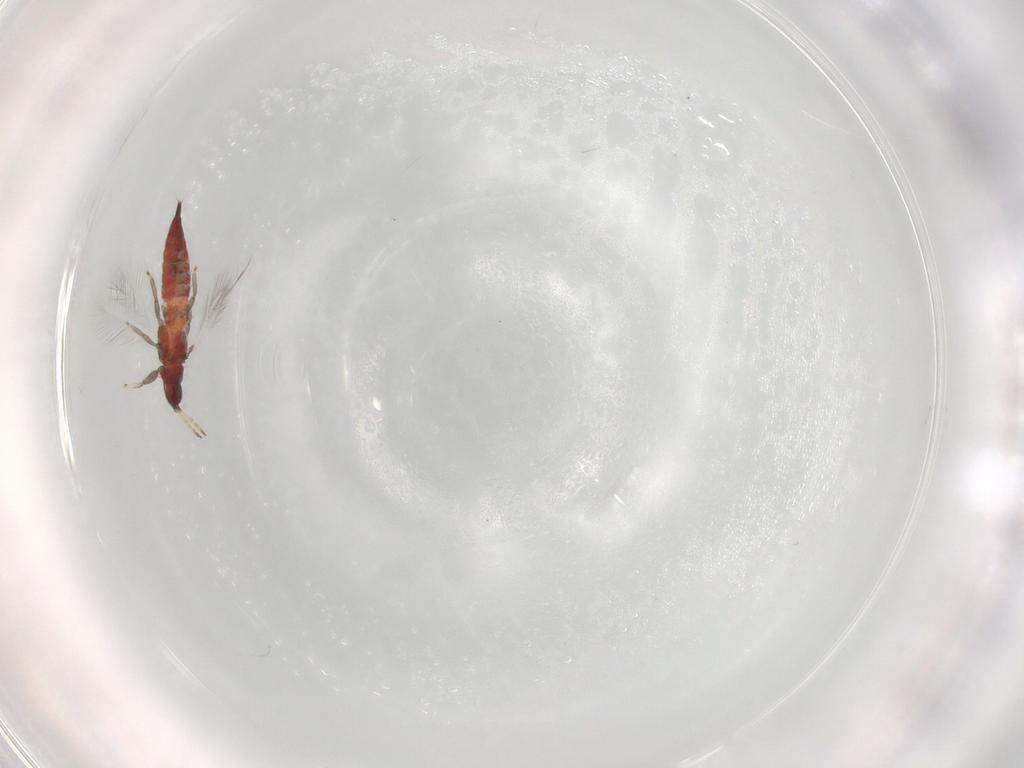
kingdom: Animalia
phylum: Arthropoda
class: Insecta
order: Thysanoptera
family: Phlaeothripidae
